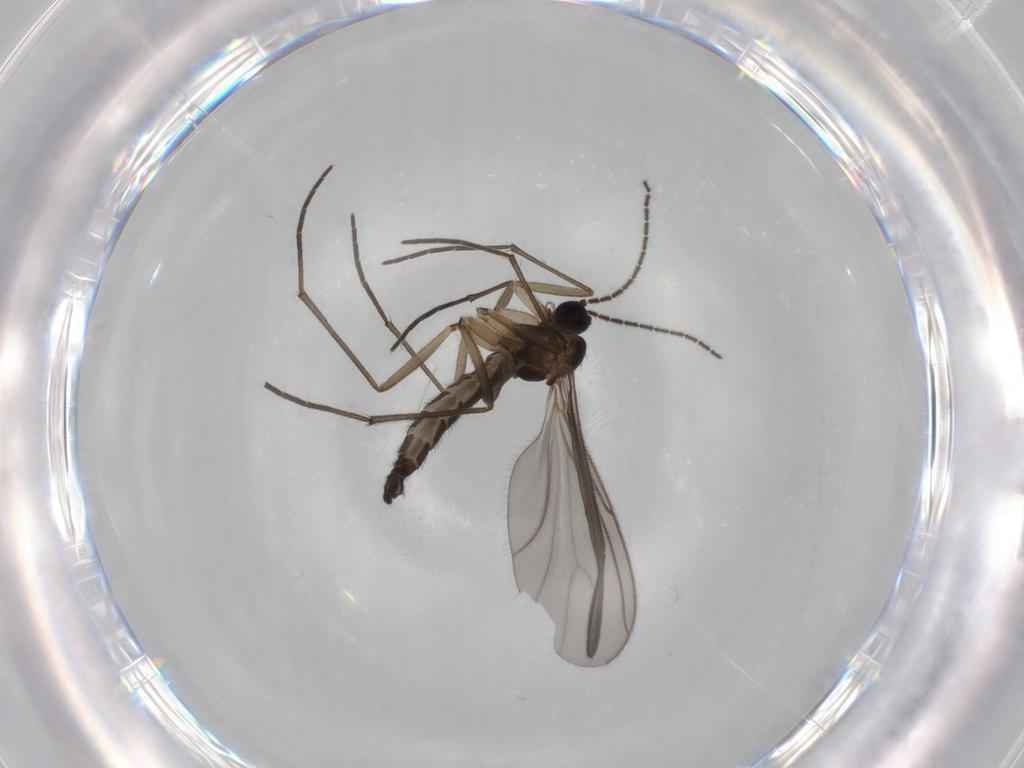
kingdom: Animalia
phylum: Arthropoda
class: Insecta
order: Diptera
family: Sciaridae
